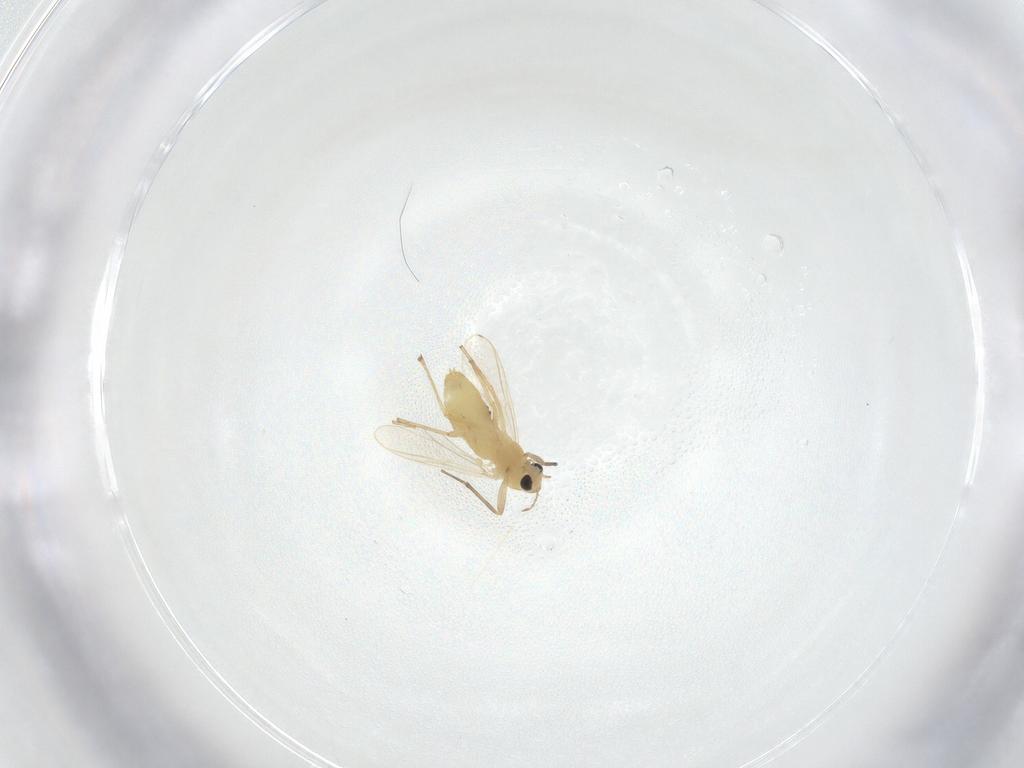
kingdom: Animalia
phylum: Arthropoda
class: Insecta
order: Diptera
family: Chironomidae
